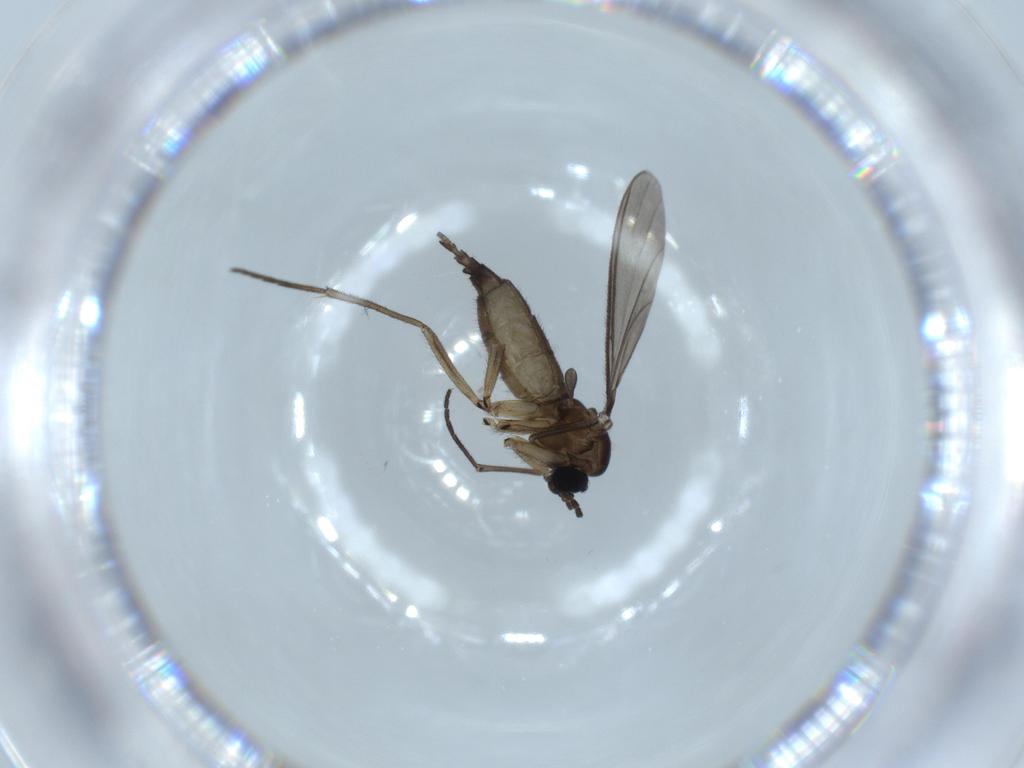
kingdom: Animalia
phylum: Arthropoda
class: Insecta
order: Diptera
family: Sciaridae
